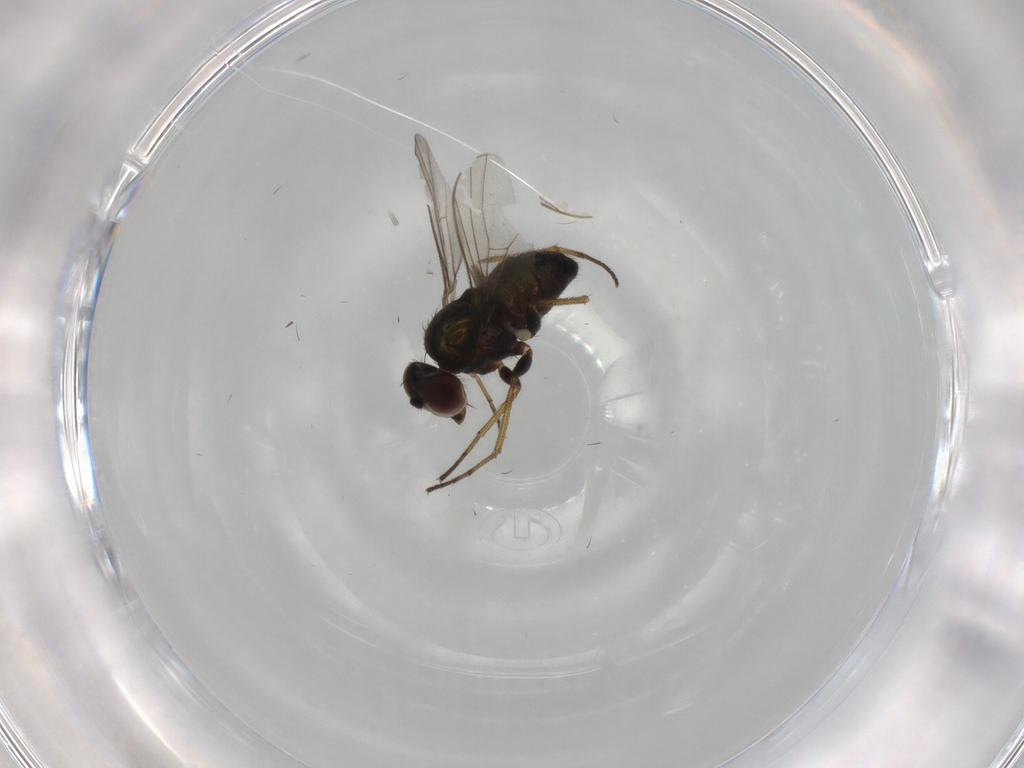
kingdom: Animalia
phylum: Arthropoda
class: Insecta
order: Diptera
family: Dolichopodidae
